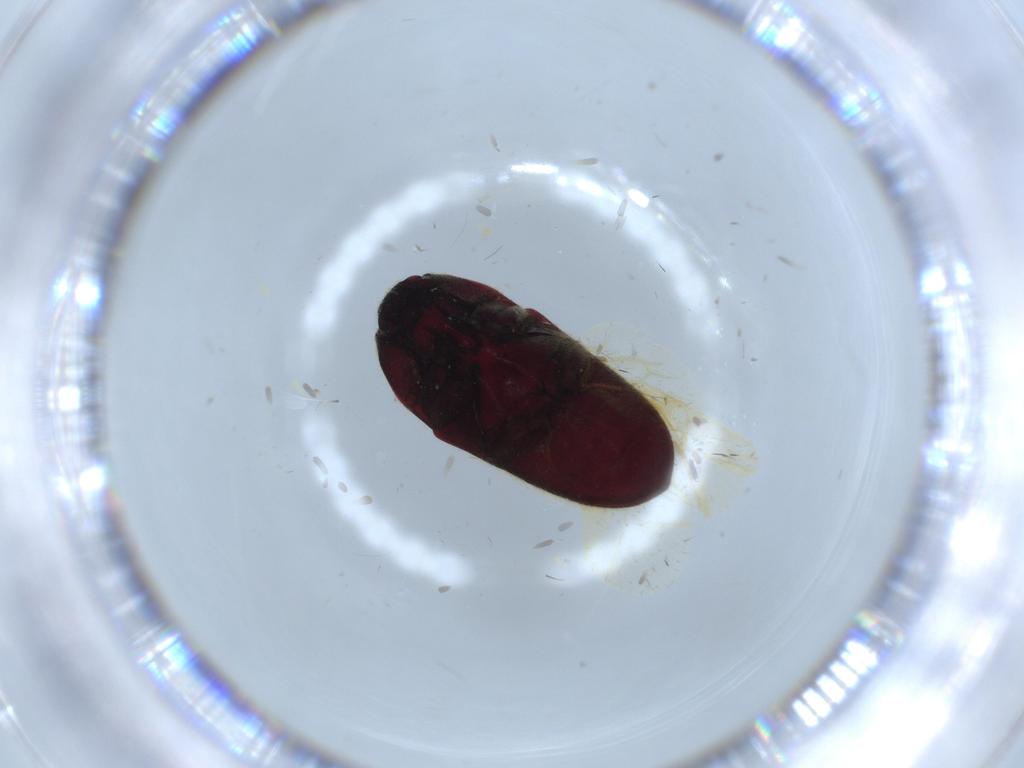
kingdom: Animalia
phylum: Arthropoda
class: Insecta
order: Coleoptera
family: Throscidae
